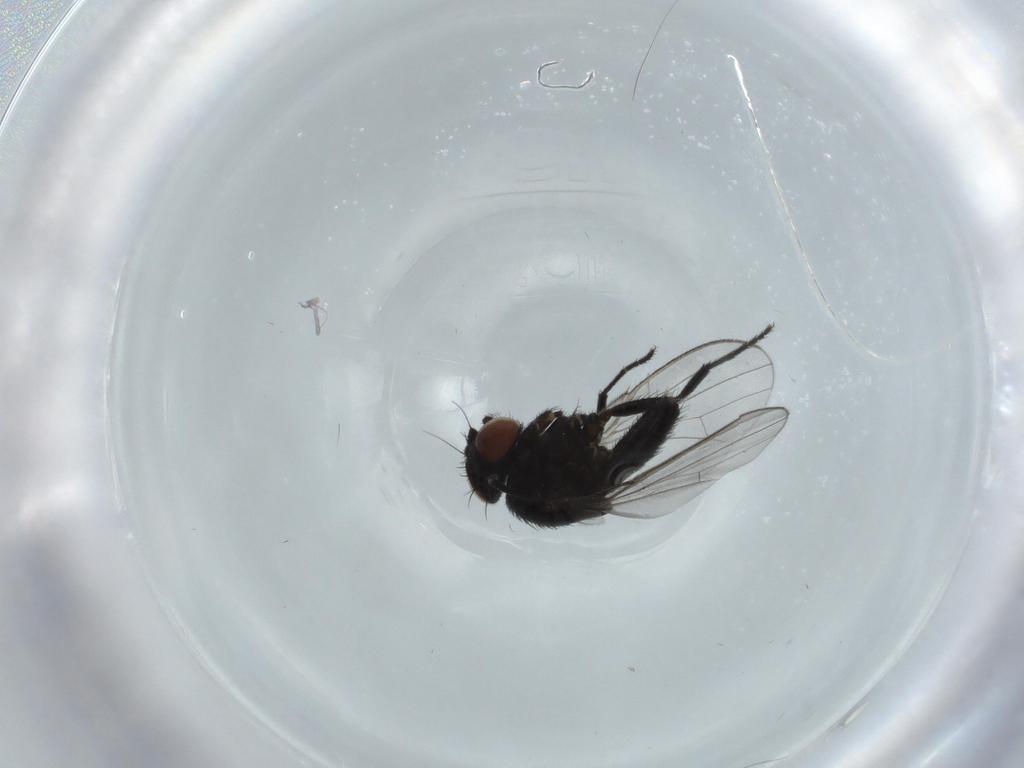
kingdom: Animalia
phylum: Arthropoda
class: Insecta
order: Diptera
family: Milichiidae
